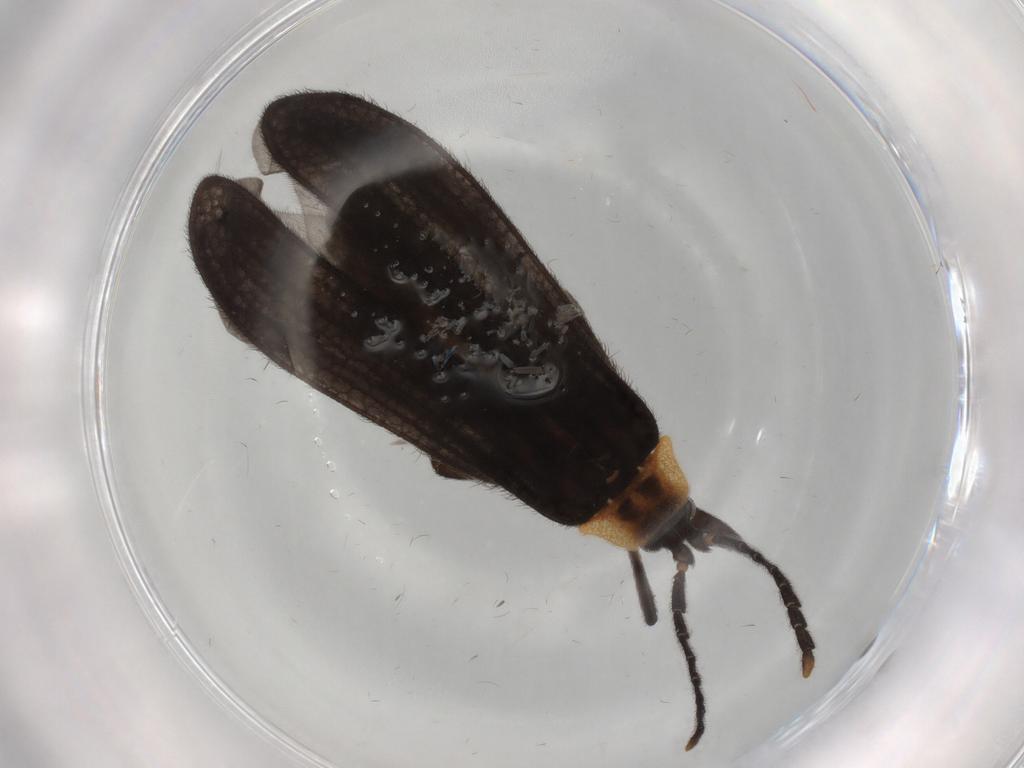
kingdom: Animalia
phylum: Arthropoda
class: Insecta
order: Coleoptera
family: Lycidae
